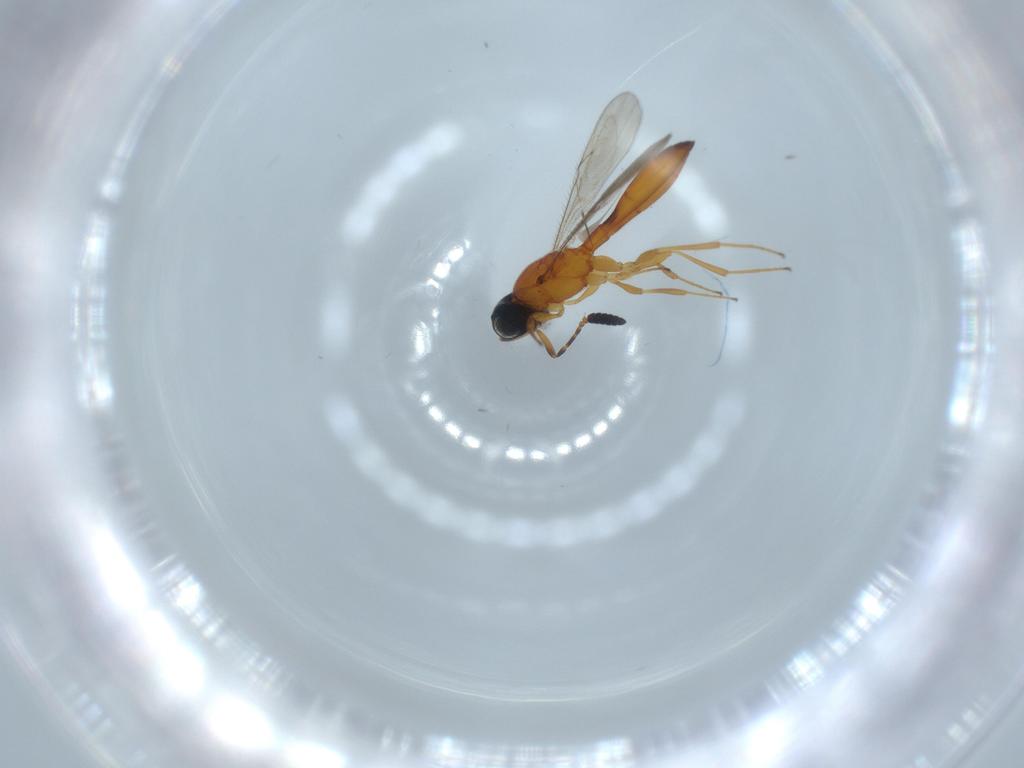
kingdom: Animalia
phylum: Arthropoda
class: Insecta
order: Hymenoptera
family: Scelionidae
